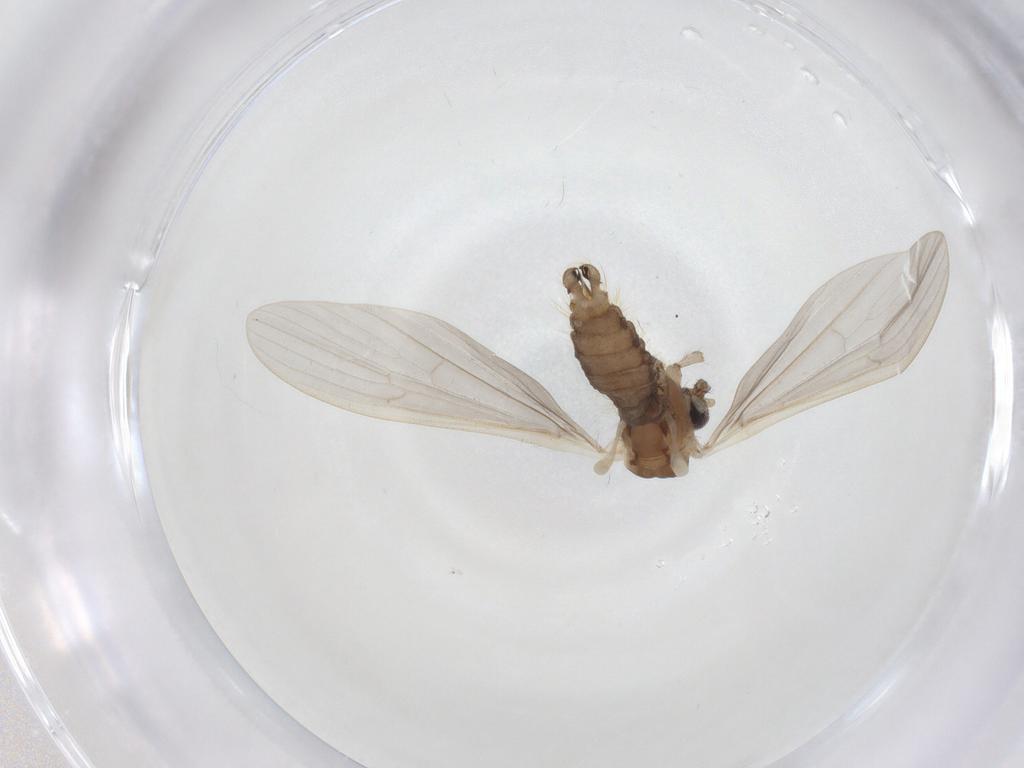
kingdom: Animalia
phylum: Arthropoda
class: Insecta
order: Diptera
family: Limoniidae
